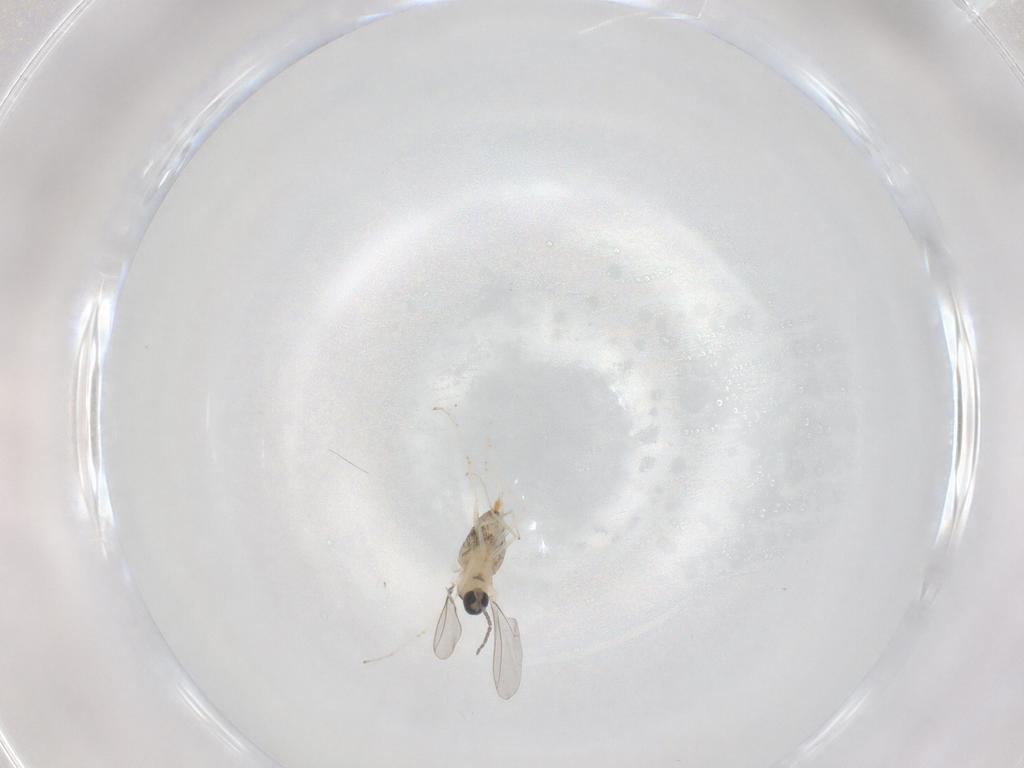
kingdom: Animalia
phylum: Arthropoda
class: Insecta
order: Diptera
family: Cecidomyiidae
